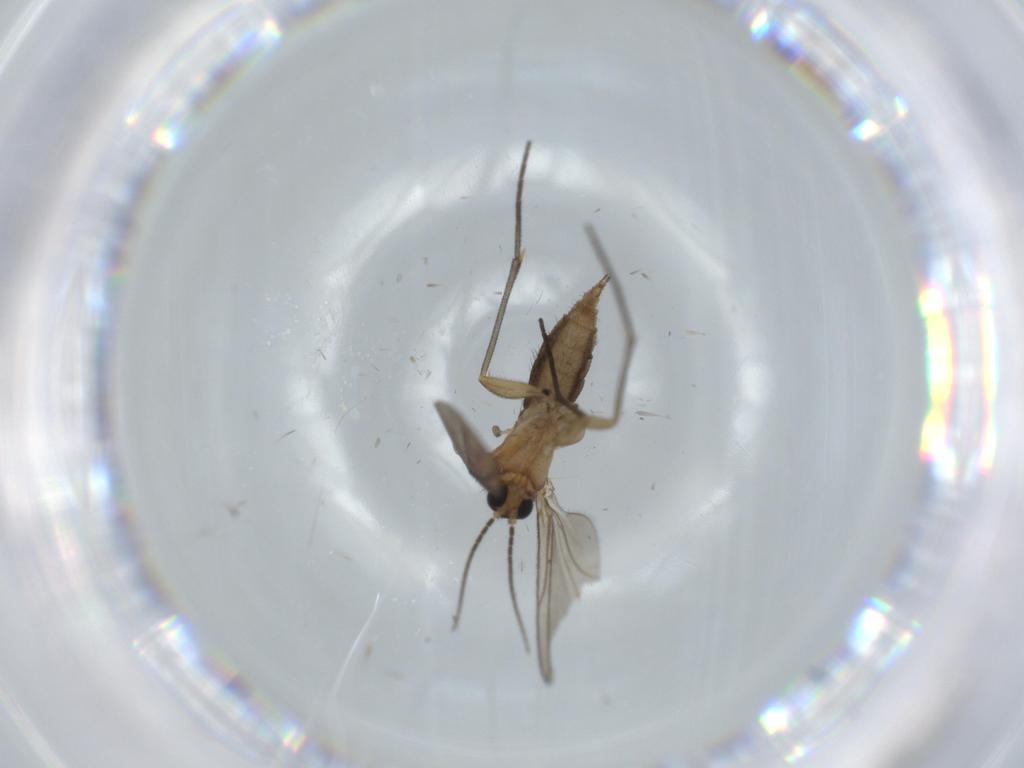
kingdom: Animalia
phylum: Arthropoda
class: Insecta
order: Diptera
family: Sciaridae
